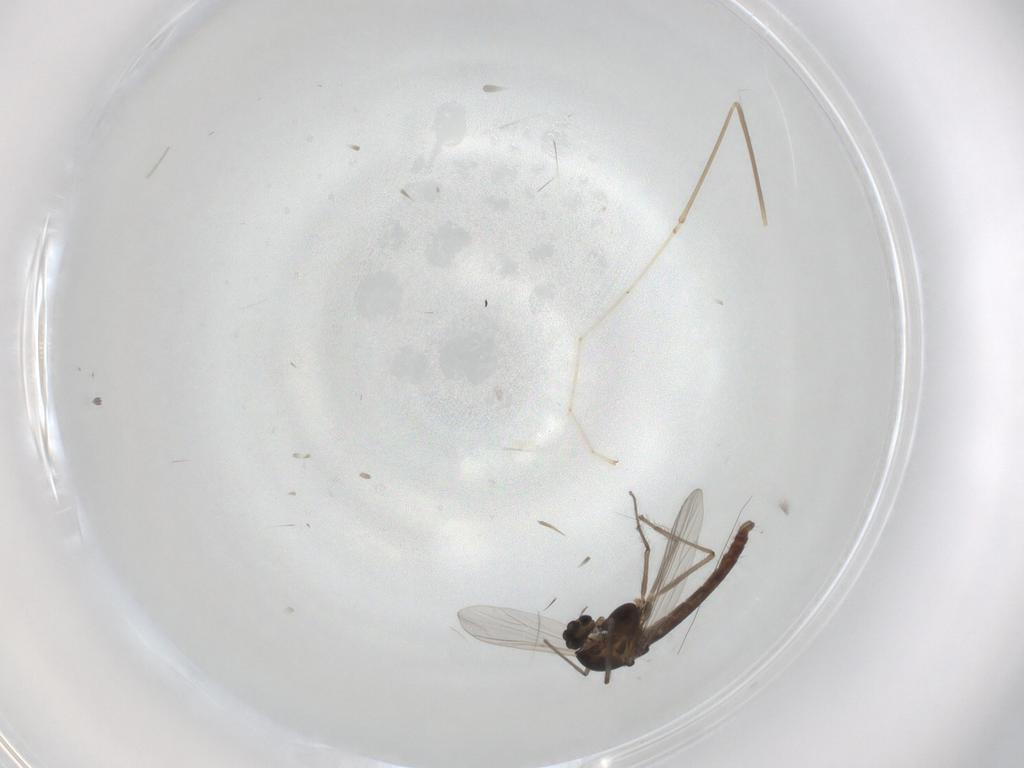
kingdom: Animalia
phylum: Arthropoda
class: Insecta
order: Diptera
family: Chironomidae
